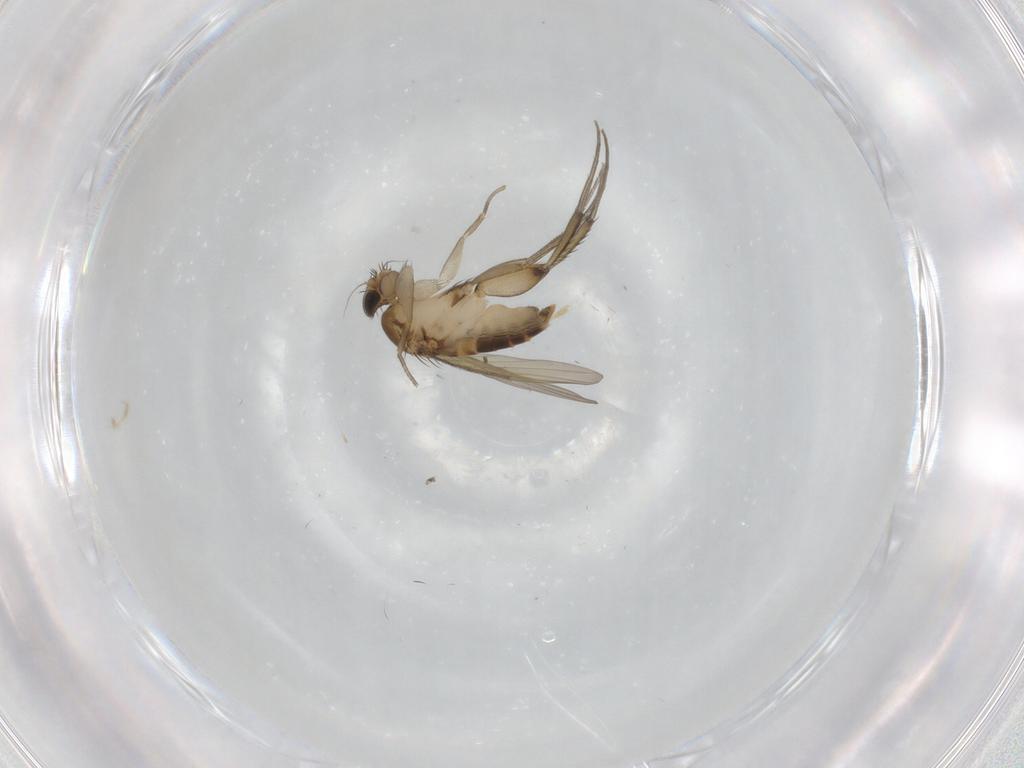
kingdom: Animalia
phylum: Arthropoda
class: Insecta
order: Diptera
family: Phoridae
